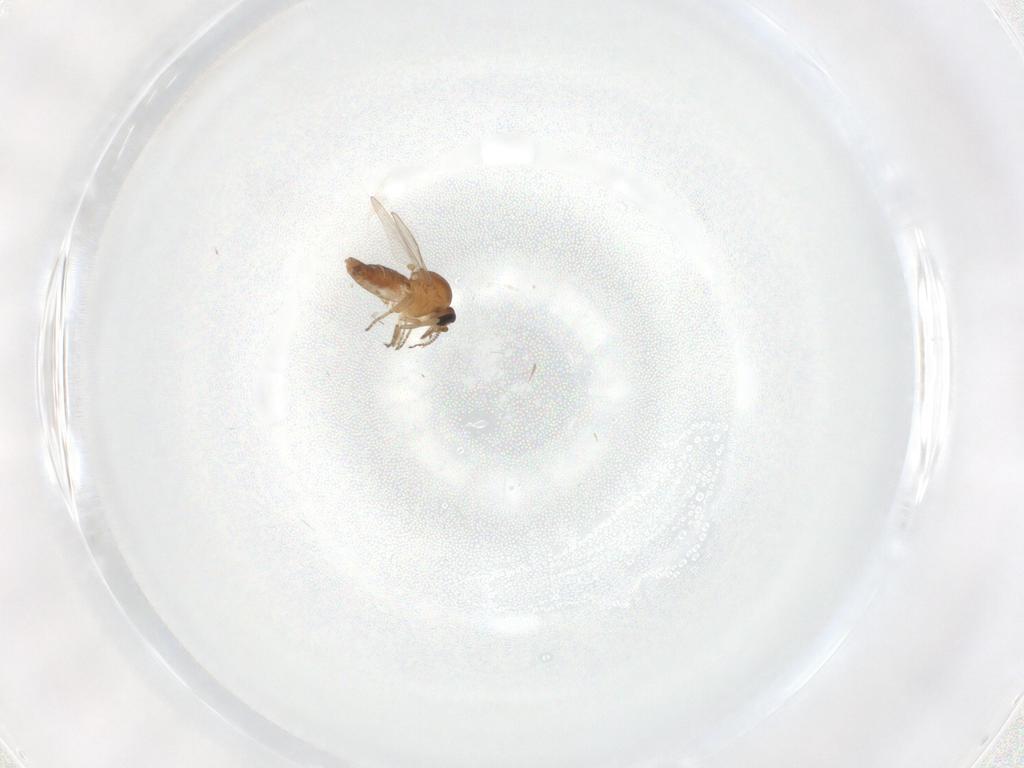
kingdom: Animalia
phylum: Arthropoda
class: Insecta
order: Diptera
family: Ceratopogonidae
